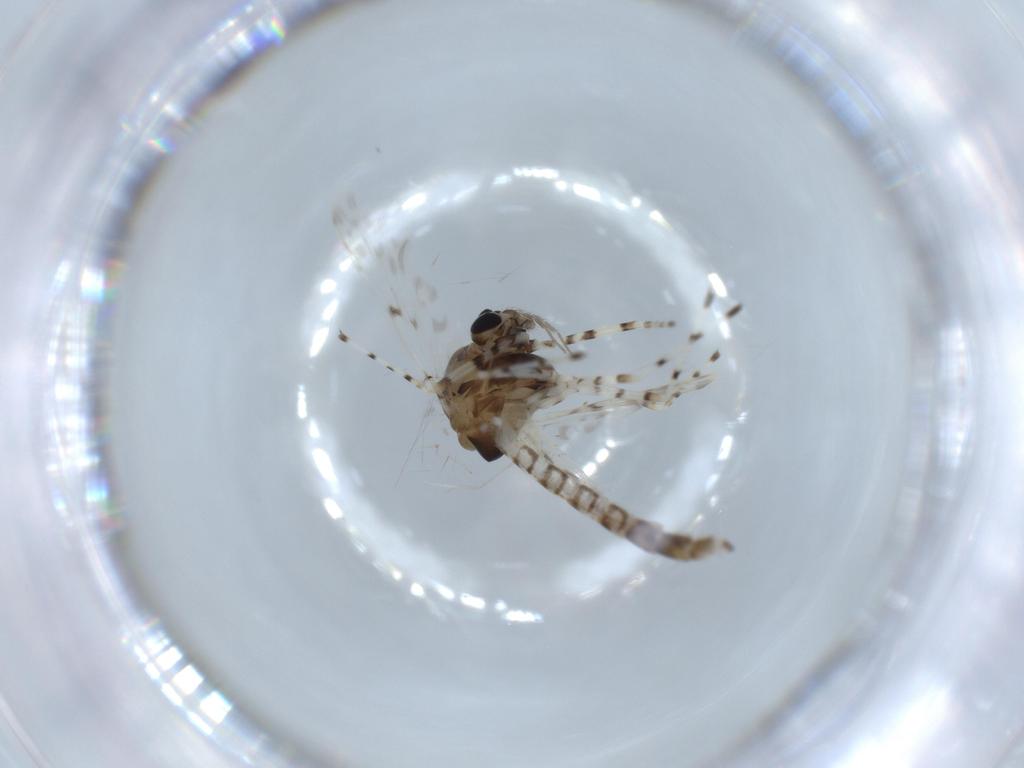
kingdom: Animalia
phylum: Arthropoda
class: Insecta
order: Diptera
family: Chironomidae
